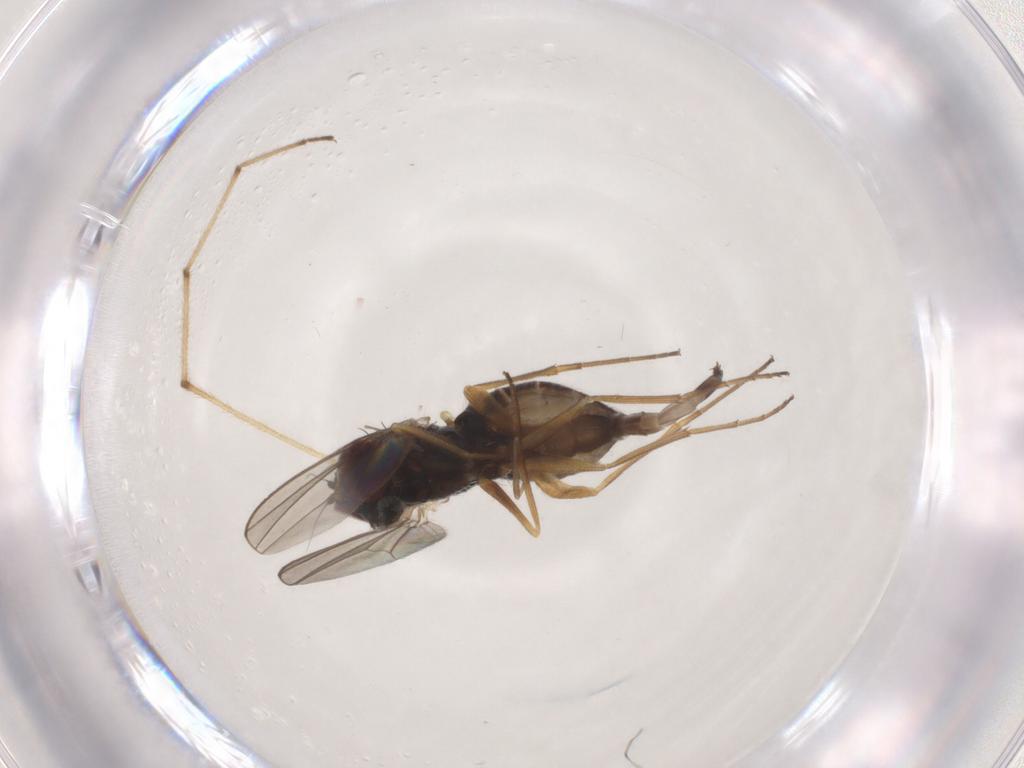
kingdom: Animalia
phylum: Arthropoda
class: Insecta
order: Diptera
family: Dolichopodidae
